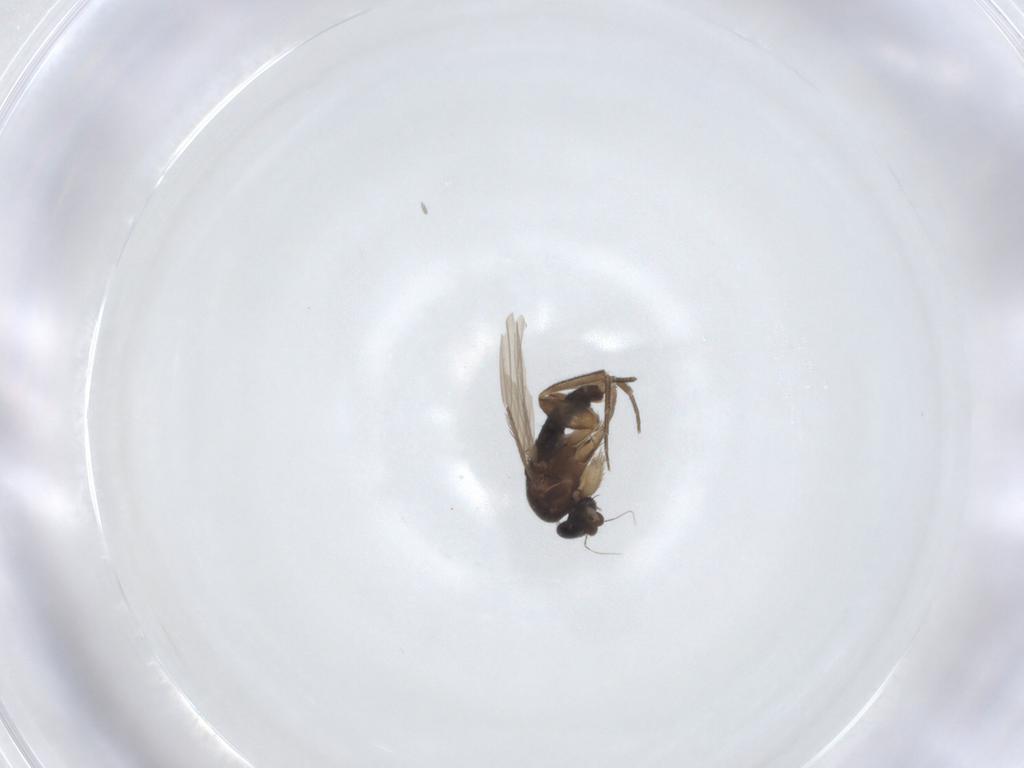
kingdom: Animalia
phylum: Arthropoda
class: Insecta
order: Diptera
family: Phoridae
